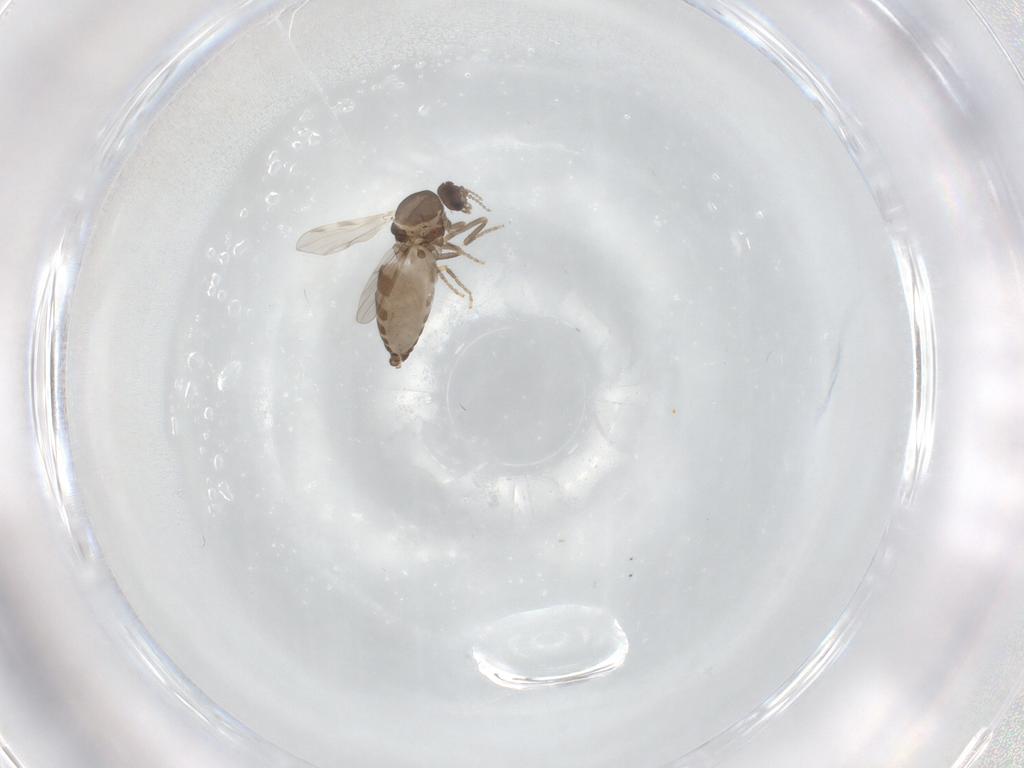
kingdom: Animalia
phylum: Arthropoda
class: Insecta
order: Diptera
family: Ceratopogonidae
